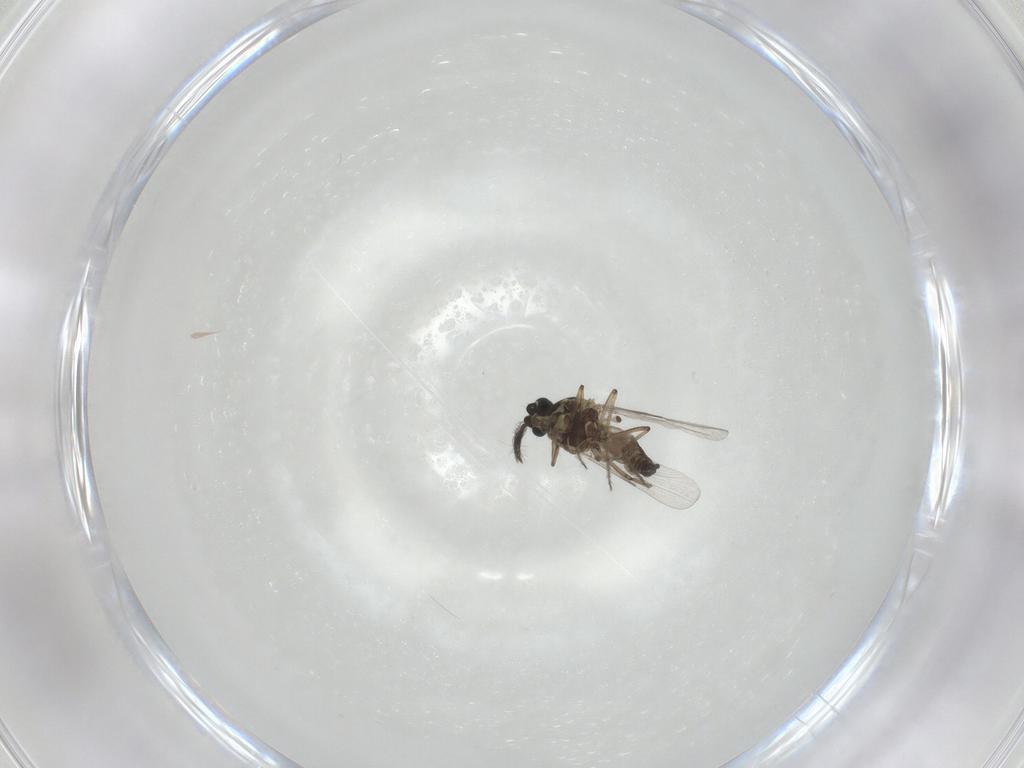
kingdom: Animalia
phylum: Arthropoda
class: Insecta
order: Diptera
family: Ceratopogonidae
